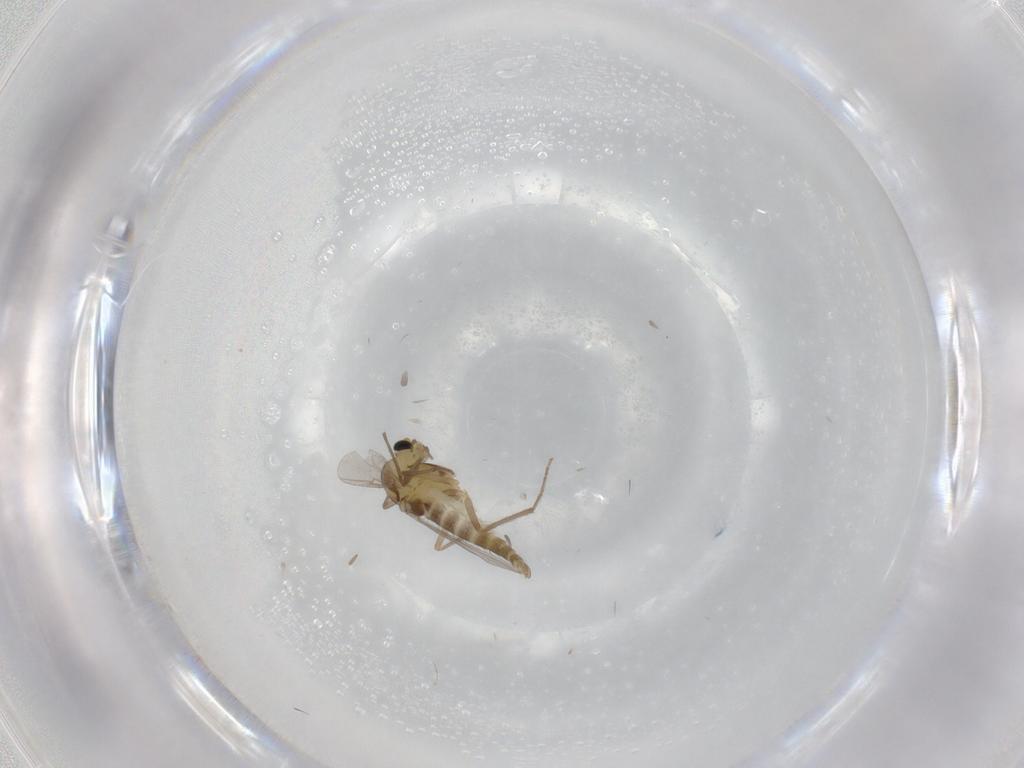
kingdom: Animalia
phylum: Arthropoda
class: Insecta
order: Diptera
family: Chironomidae
